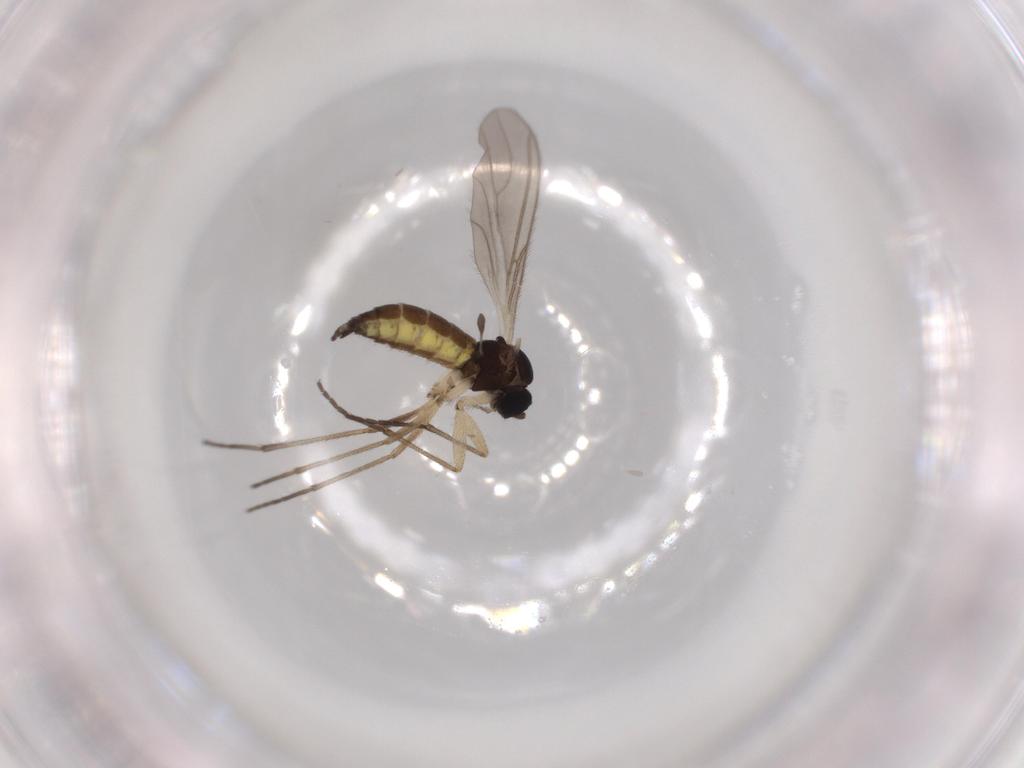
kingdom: Animalia
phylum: Arthropoda
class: Insecta
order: Diptera
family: Sciaridae
